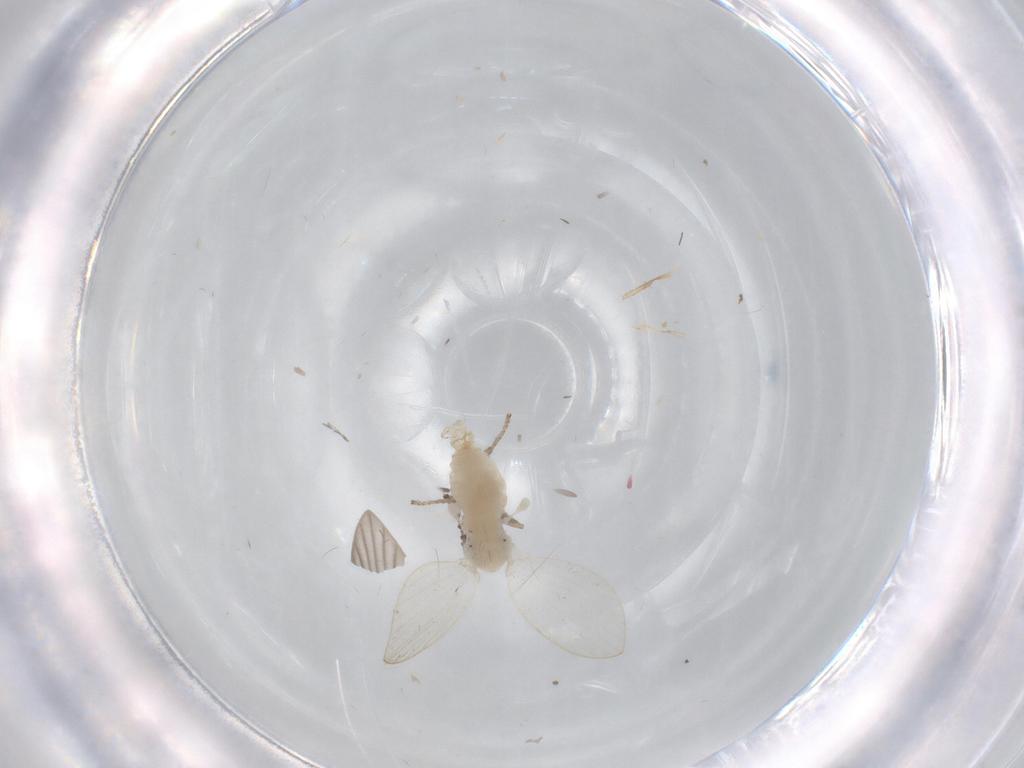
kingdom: Animalia
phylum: Arthropoda
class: Insecta
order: Diptera
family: Psychodidae
